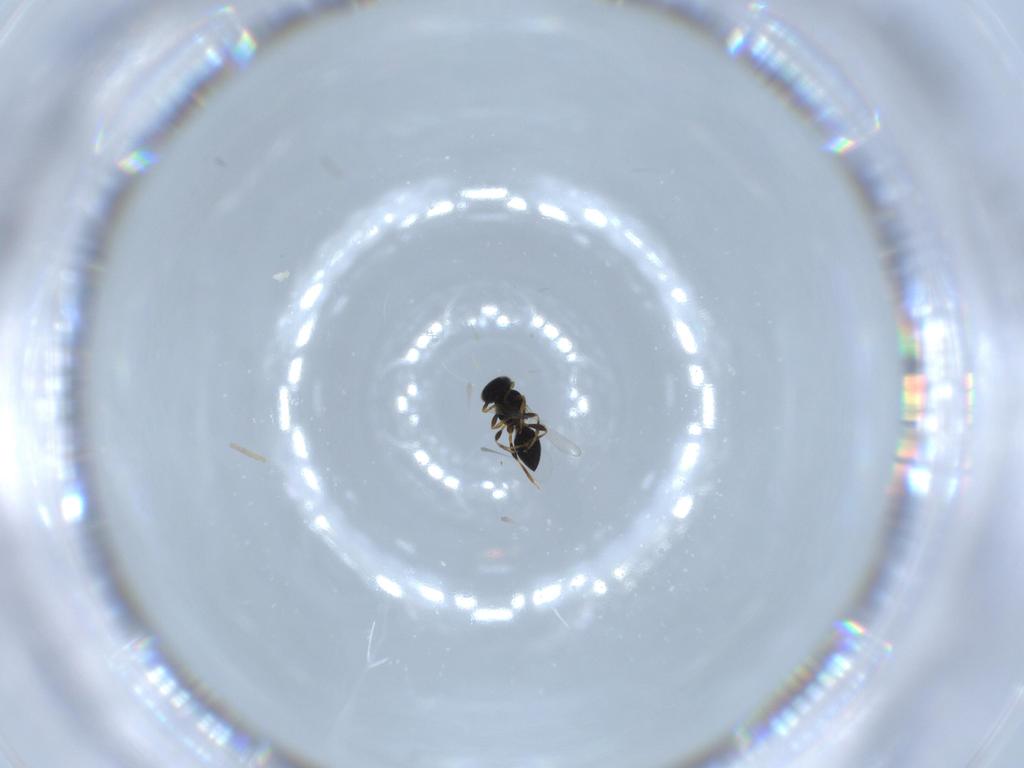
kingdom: Animalia
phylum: Arthropoda
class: Insecta
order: Hymenoptera
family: Platygastridae
